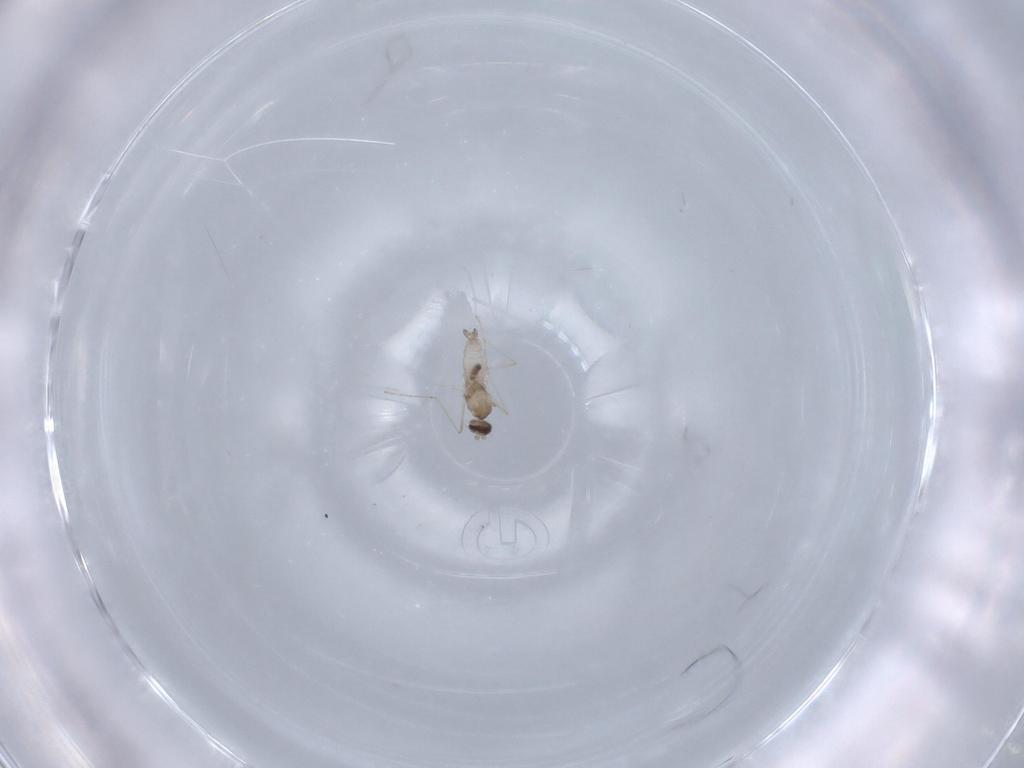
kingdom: Animalia
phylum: Arthropoda
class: Insecta
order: Diptera
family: Cecidomyiidae
